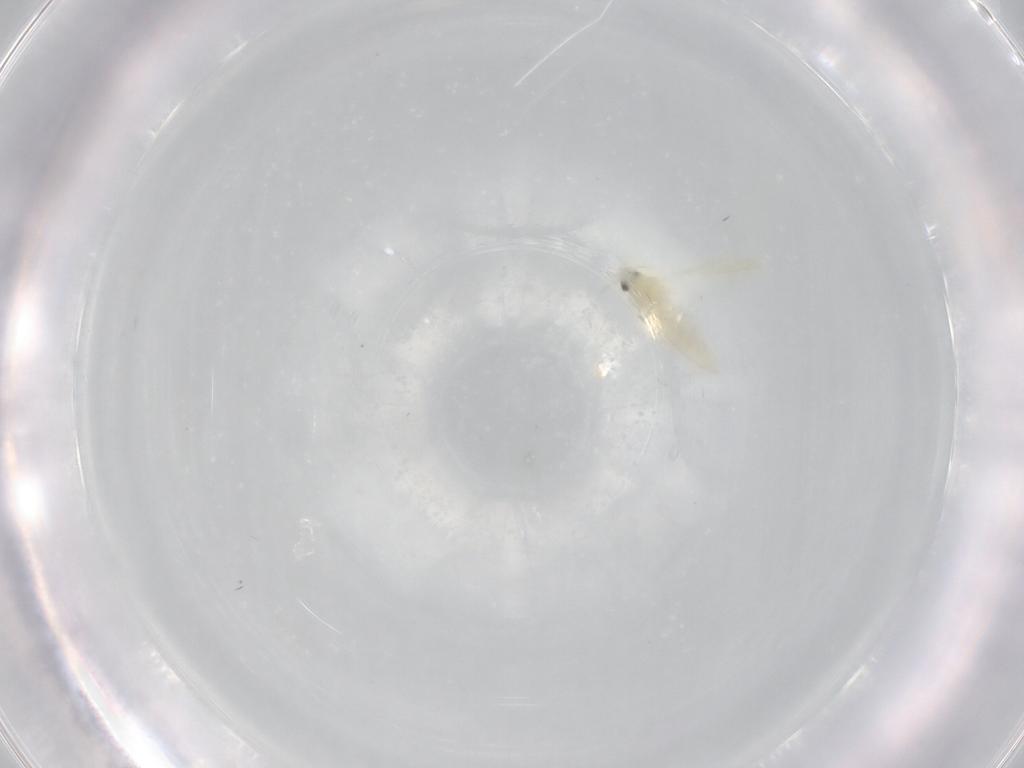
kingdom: Animalia
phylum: Arthropoda
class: Insecta
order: Hemiptera
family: Aleyrodidae
